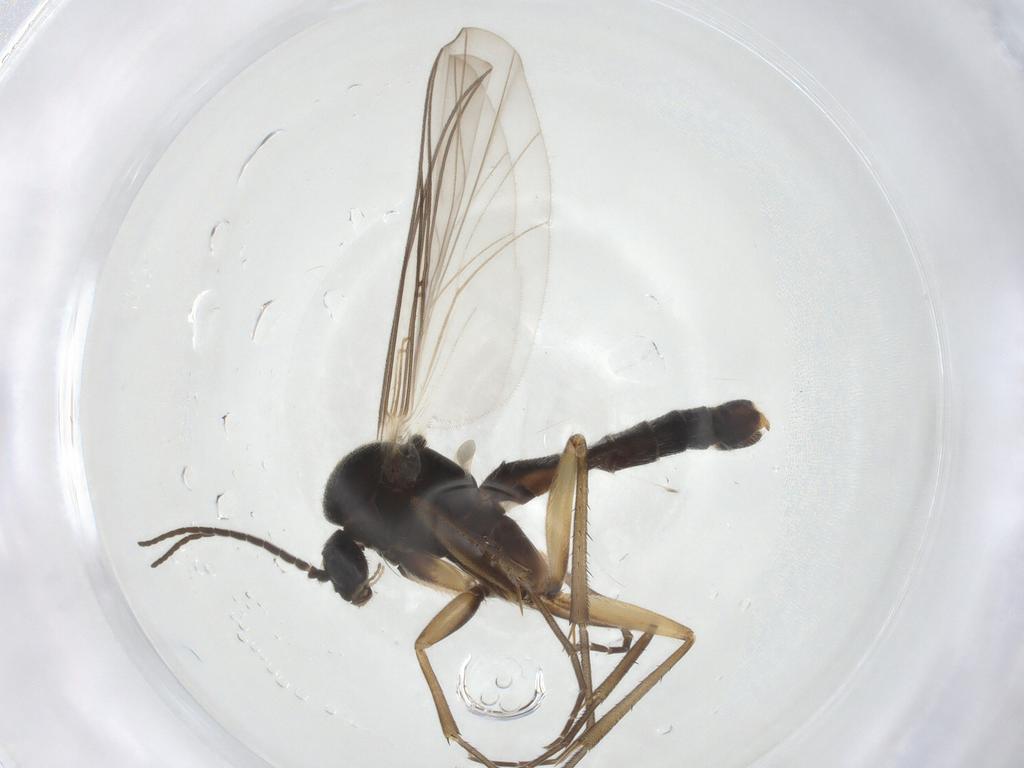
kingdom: Animalia
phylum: Arthropoda
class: Insecta
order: Diptera
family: Mycetophilidae
